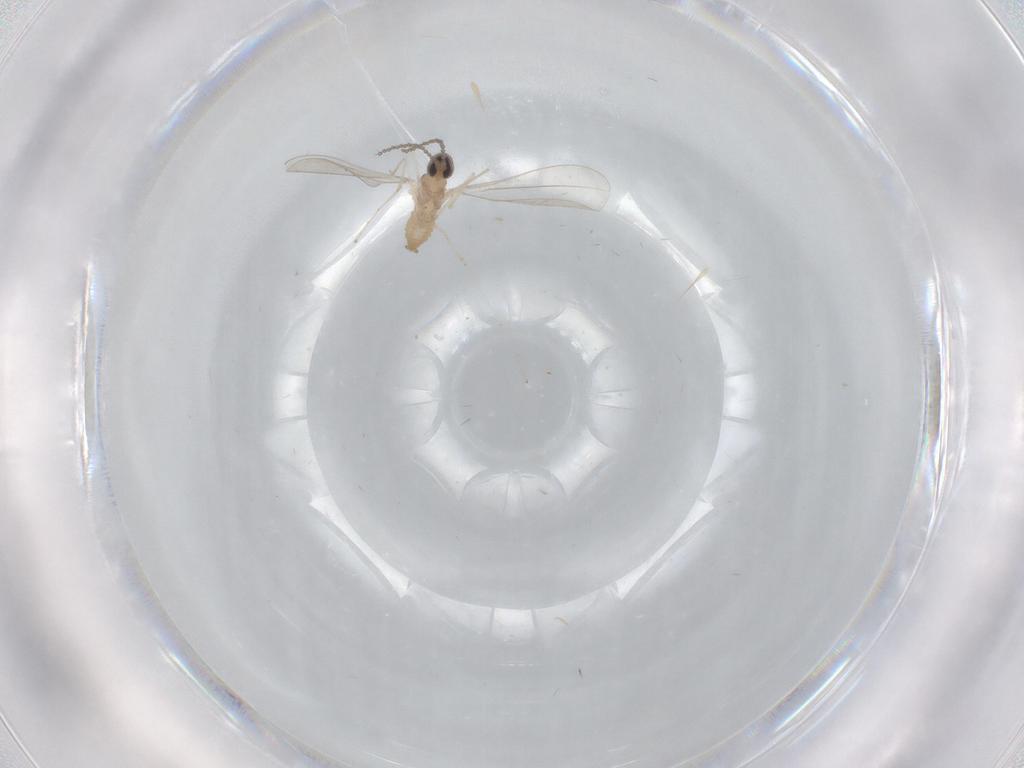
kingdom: Animalia
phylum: Arthropoda
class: Insecta
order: Diptera
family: Cecidomyiidae
